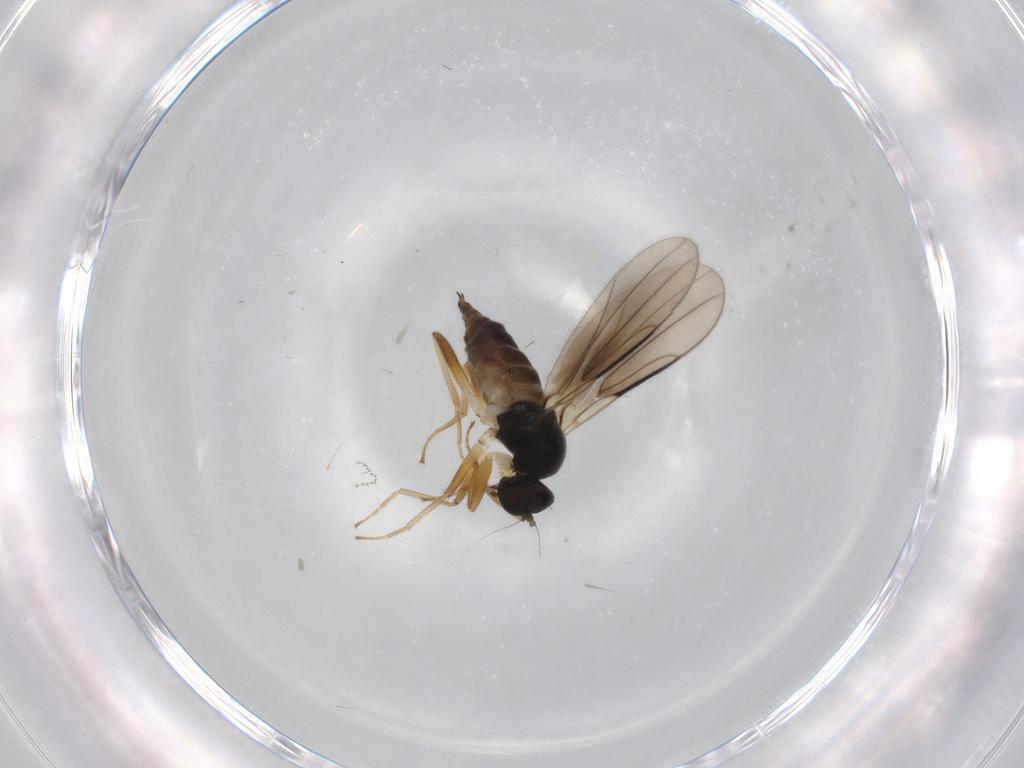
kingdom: Animalia
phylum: Arthropoda
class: Insecta
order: Diptera
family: Hybotidae
